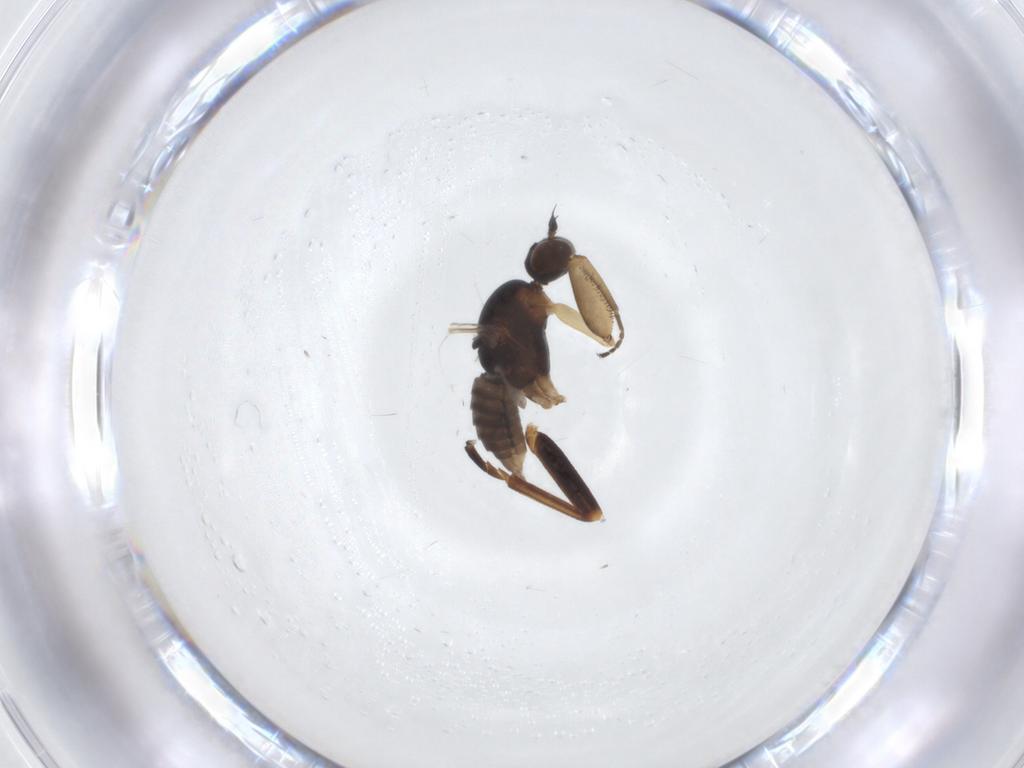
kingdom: Animalia
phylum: Arthropoda
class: Insecta
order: Diptera
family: Empididae
